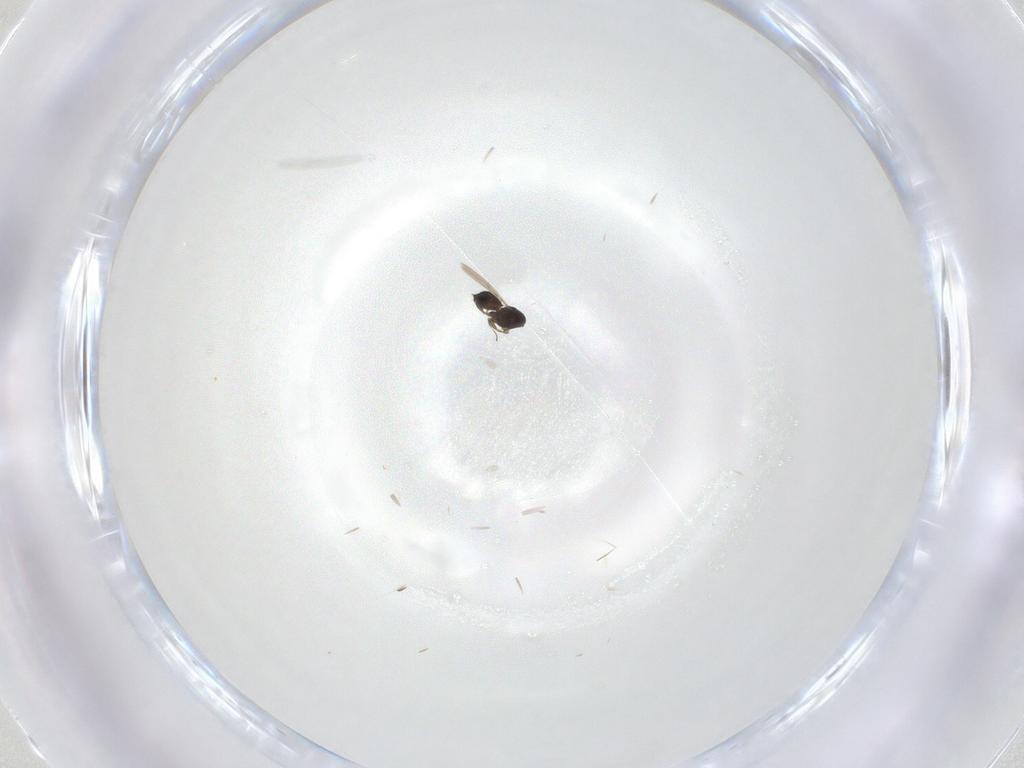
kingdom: Animalia
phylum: Arthropoda
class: Insecta
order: Hymenoptera
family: Scelionidae
